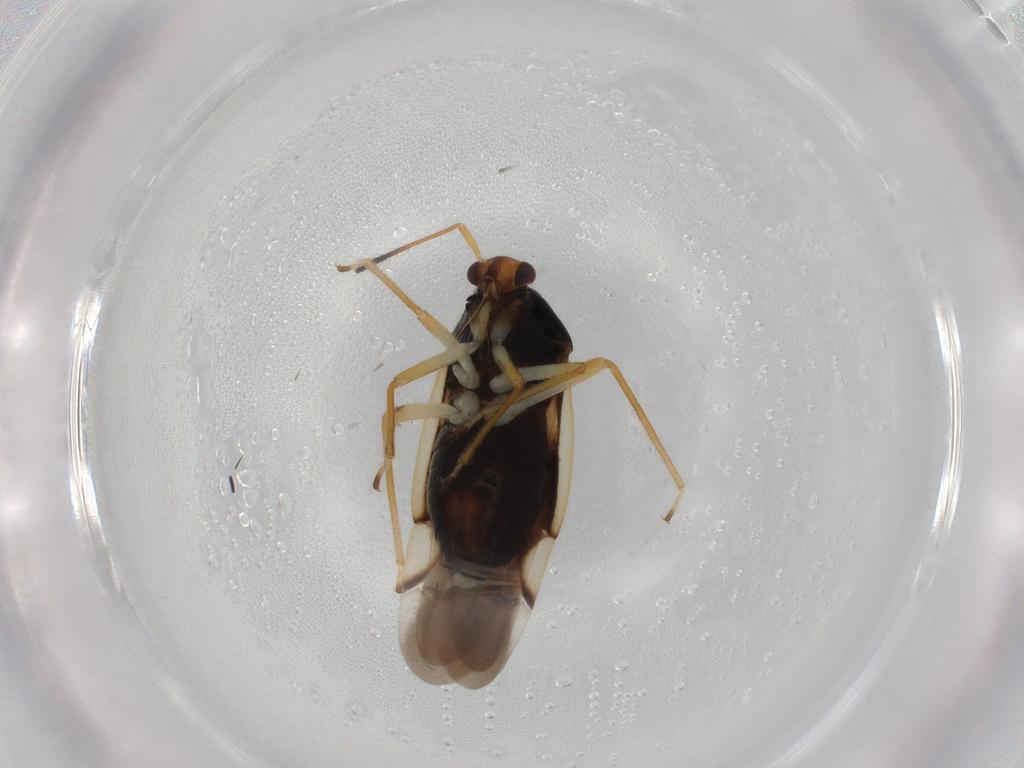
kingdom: Animalia
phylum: Arthropoda
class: Insecta
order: Hemiptera
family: Miridae
